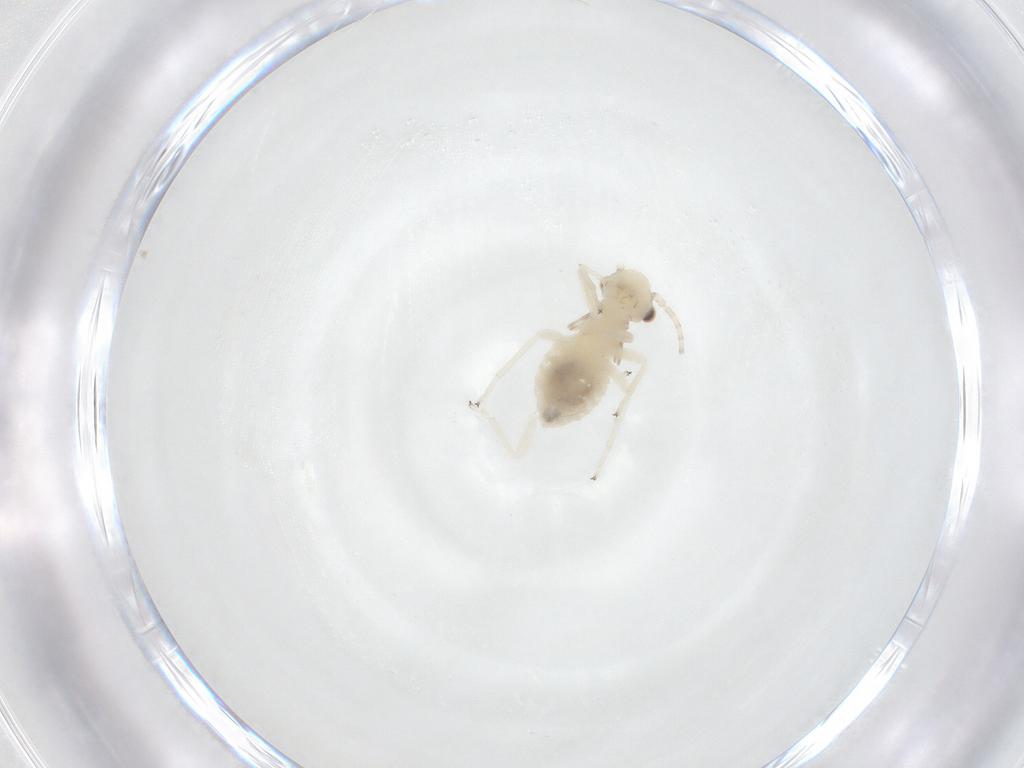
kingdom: Animalia
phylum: Arthropoda
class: Insecta
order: Psocodea
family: Amphipsocidae
